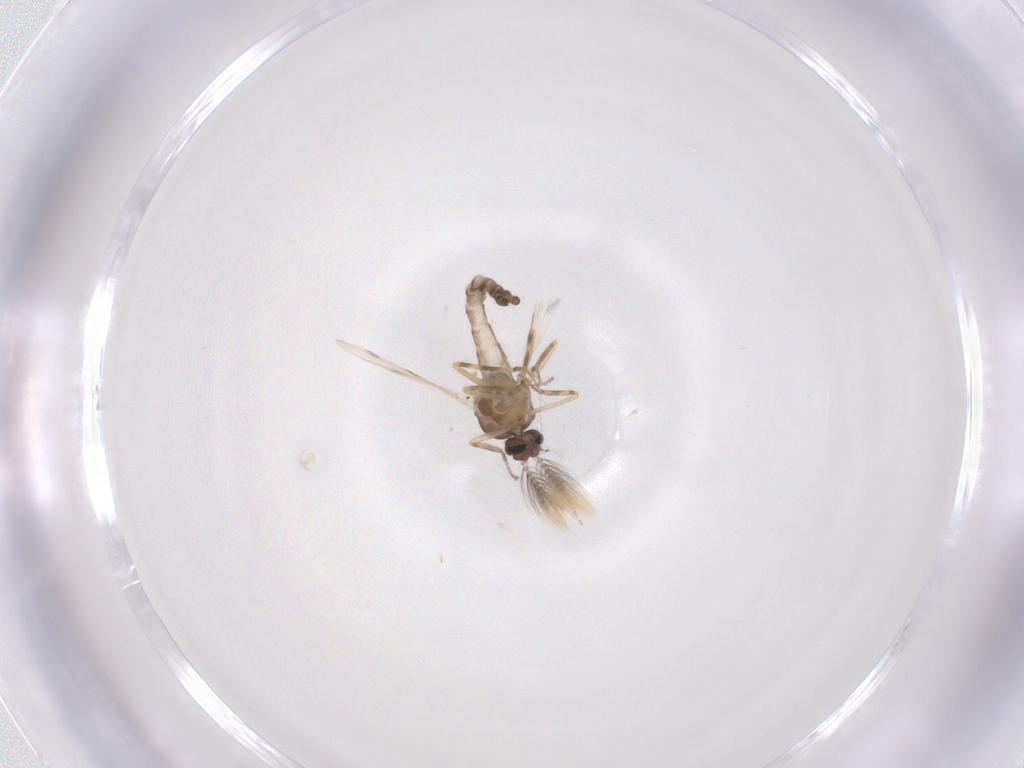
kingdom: Animalia
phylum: Arthropoda
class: Insecta
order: Diptera
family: Ceratopogonidae
